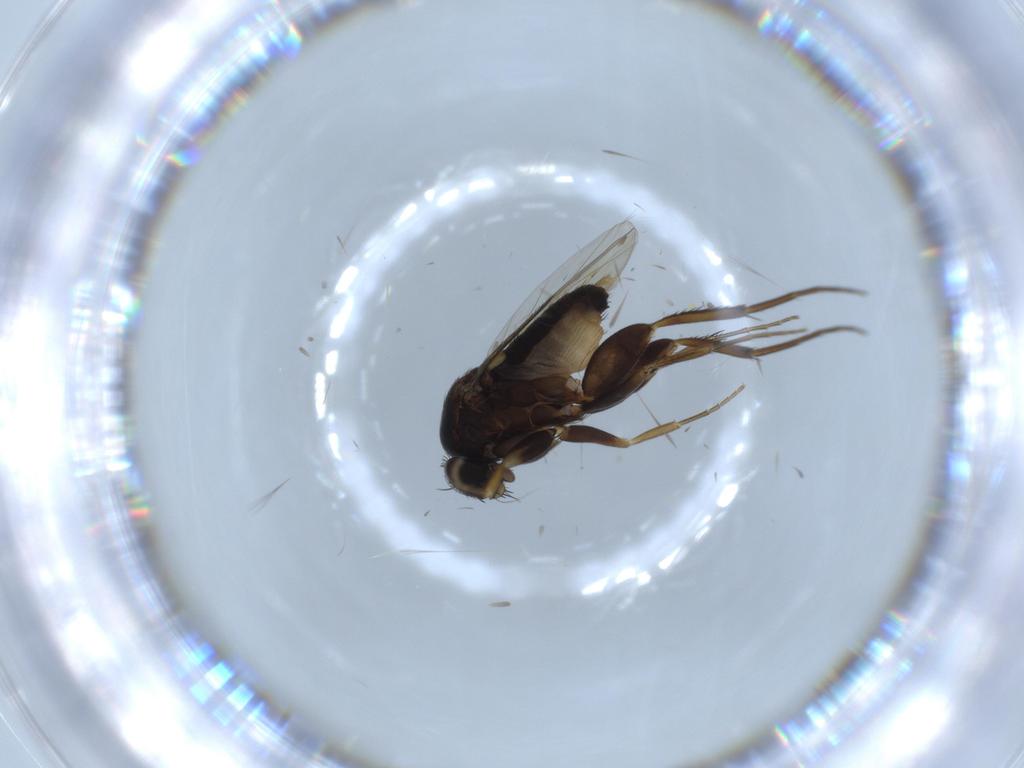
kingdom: Animalia
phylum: Arthropoda
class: Insecta
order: Diptera
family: Phoridae
